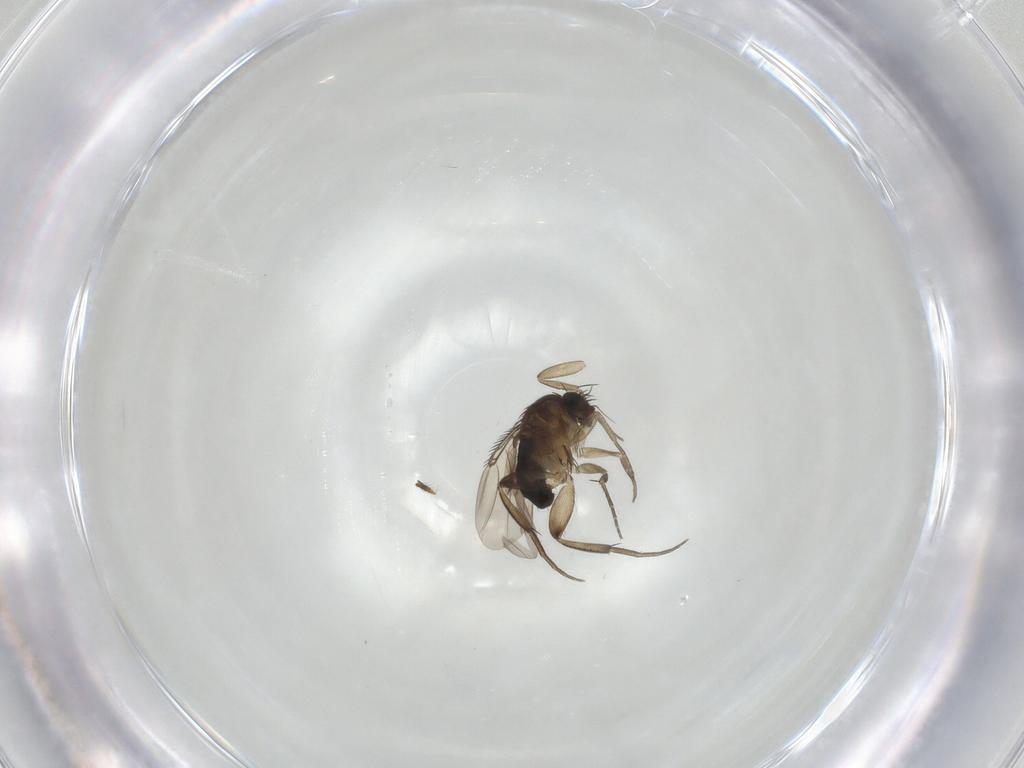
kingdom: Animalia
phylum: Arthropoda
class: Insecta
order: Diptera
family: Phoridae
